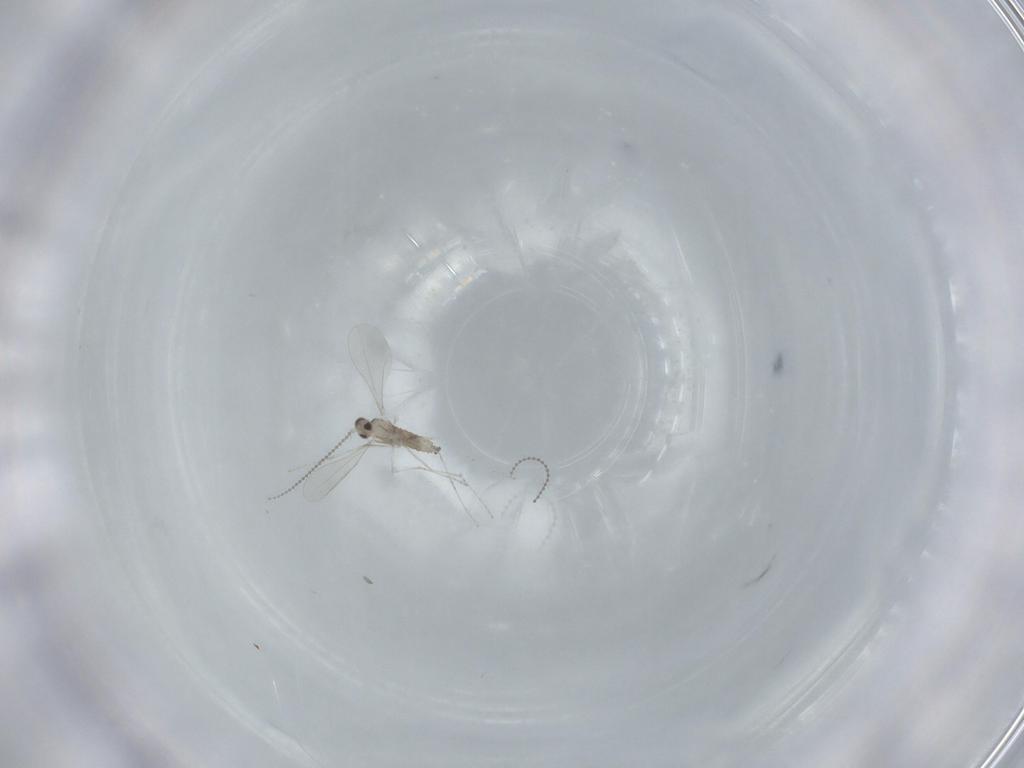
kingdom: Animalia
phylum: Arthropoda
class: Insecta
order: Diptera
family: Cecidomyiidae
